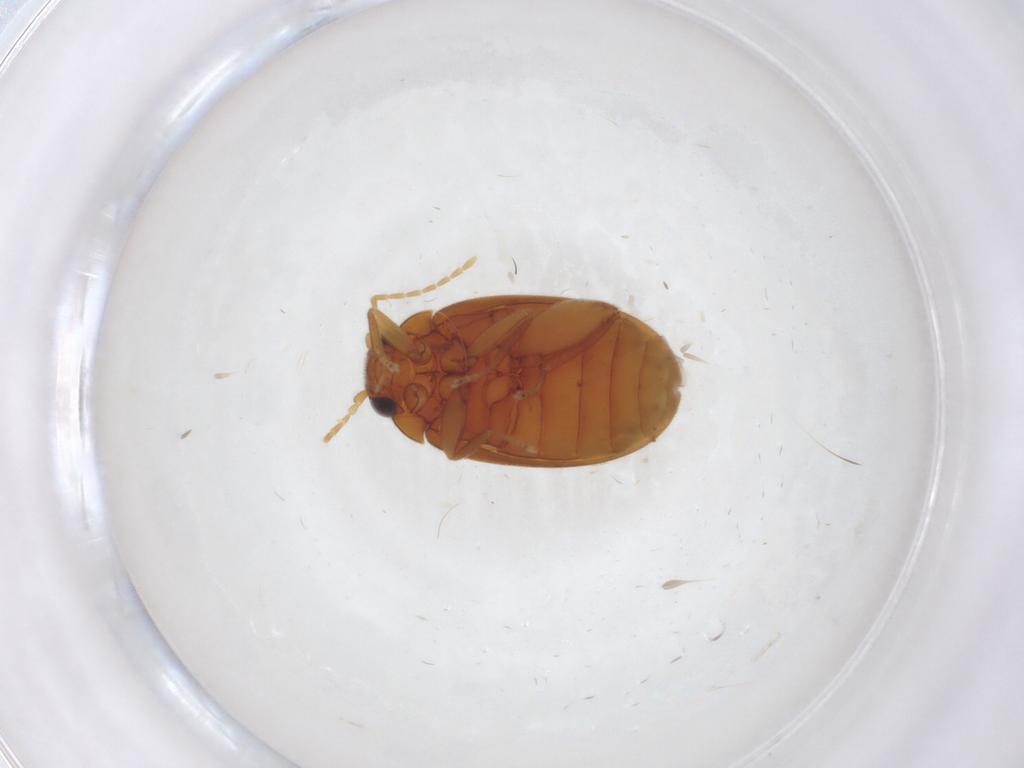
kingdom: Animalia
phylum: Arthropoda
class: Insecta
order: Coleoptera
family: Scirtidae
